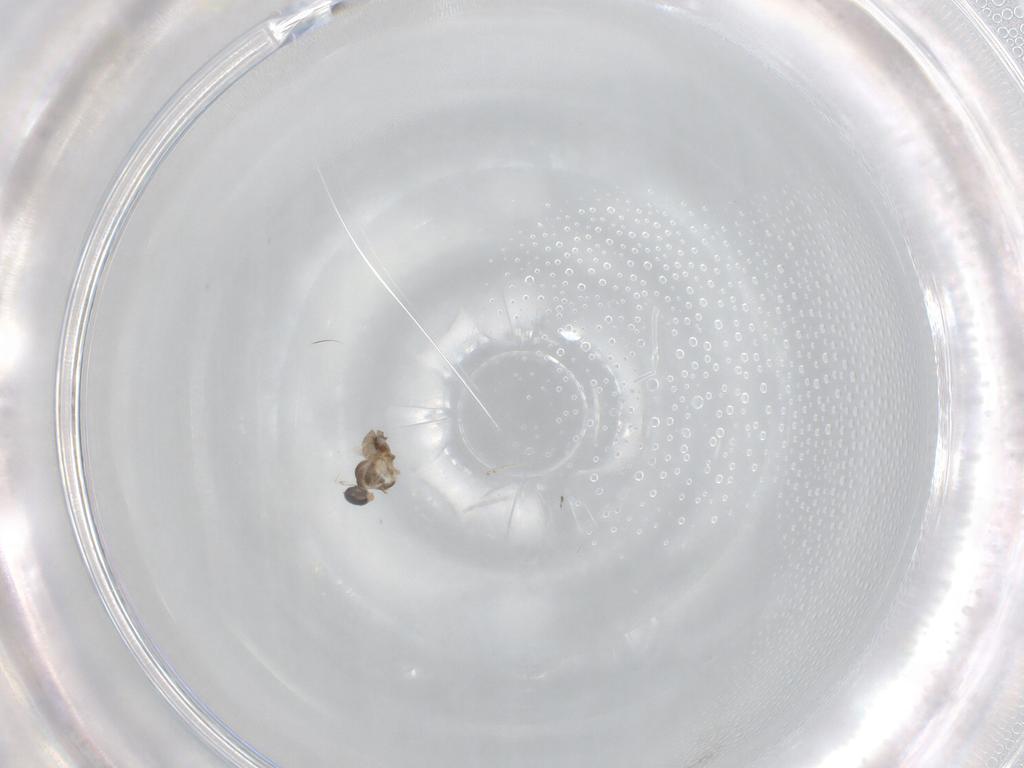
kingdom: Animalia
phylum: Arthropoda
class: Insecta
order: Diptera
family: Cecidomyiidae
